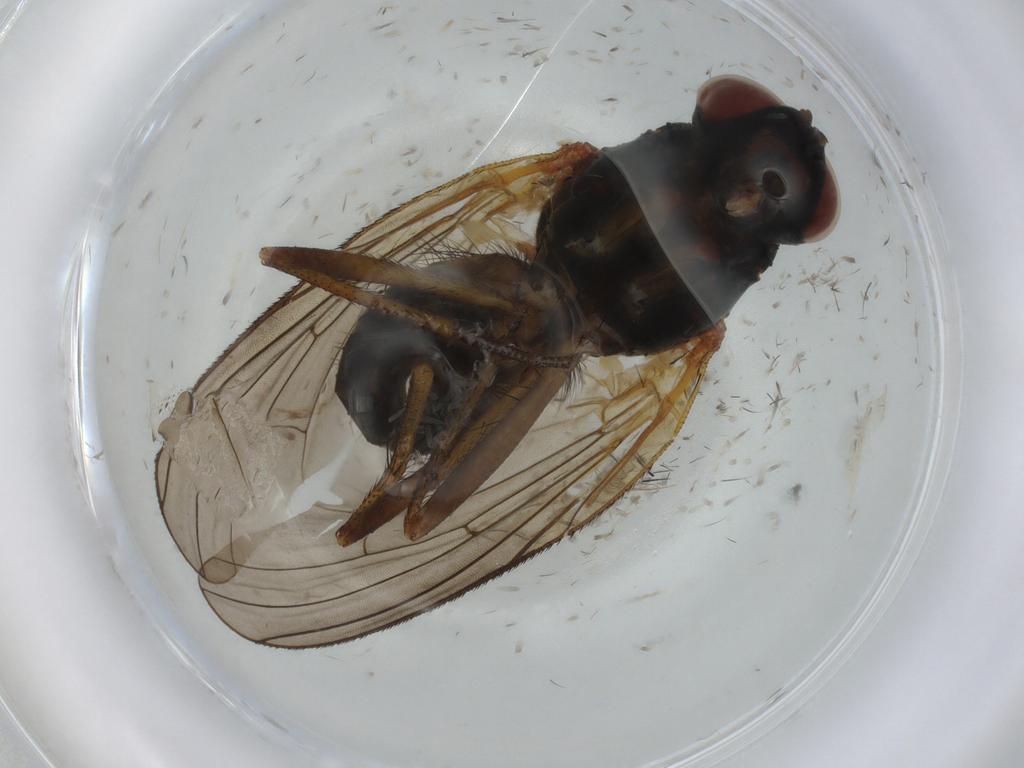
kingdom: Animalia
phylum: Arthropoda
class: Insecta
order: Diptera
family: Anthomyiidae
